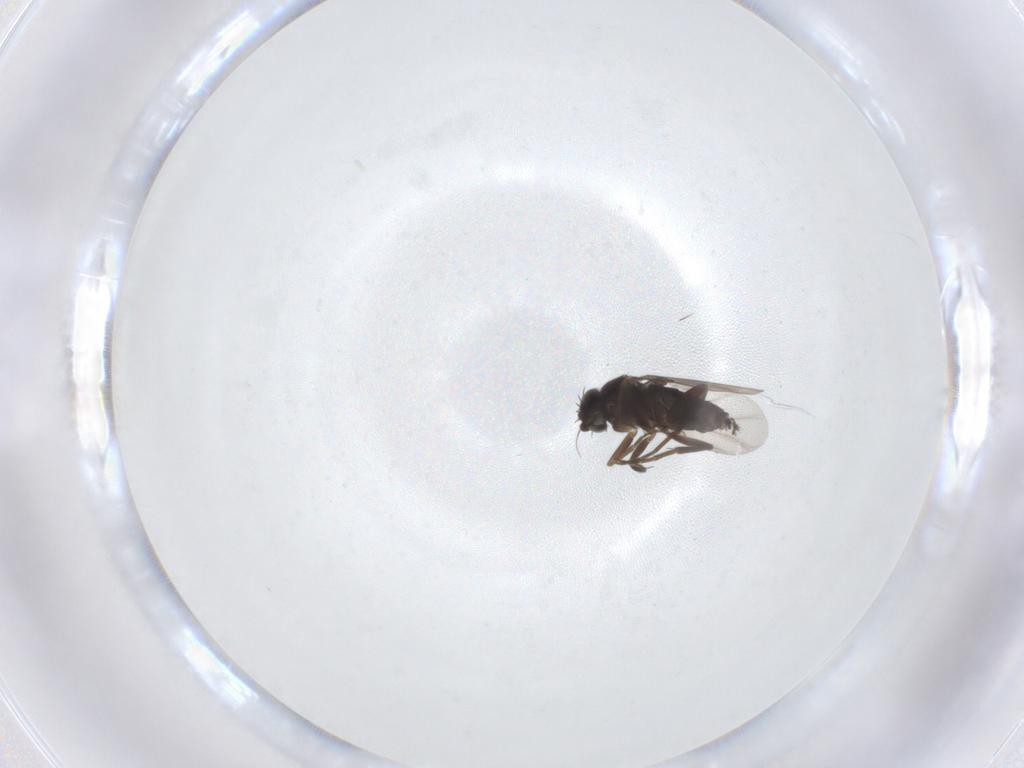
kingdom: Animalia
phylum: Arthropoda
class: Insecta
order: Diptera
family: Phoridae
